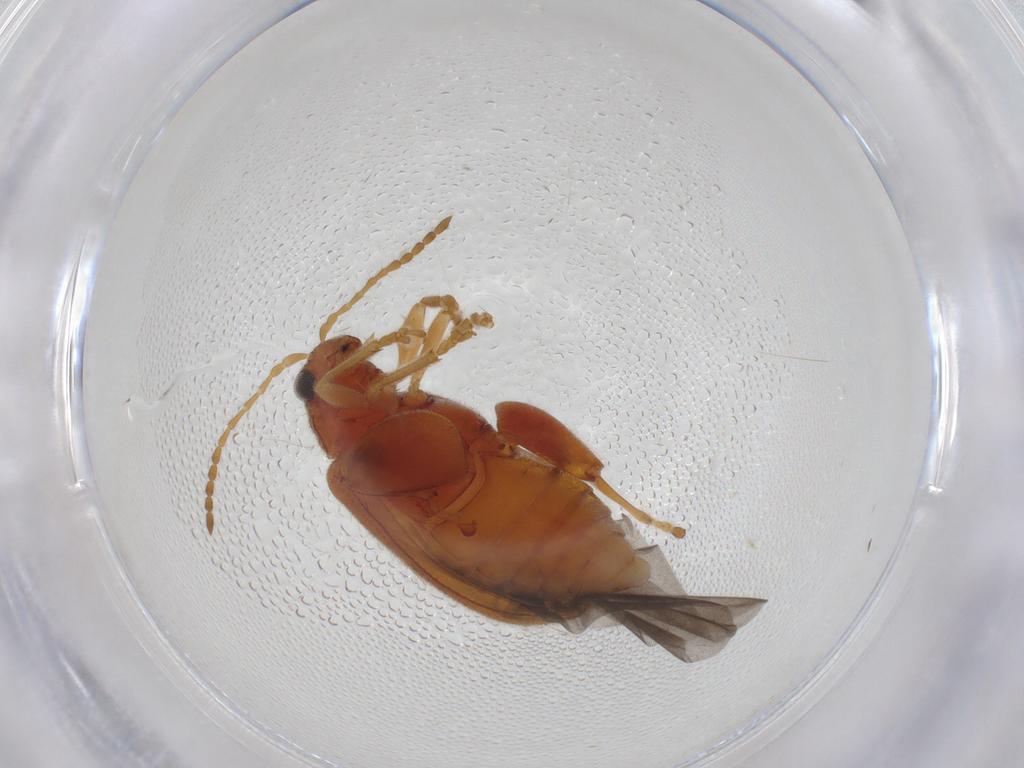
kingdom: Animalia
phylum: Arthropoda
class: Insecta
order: Coleoptera
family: Chrysomelidae
